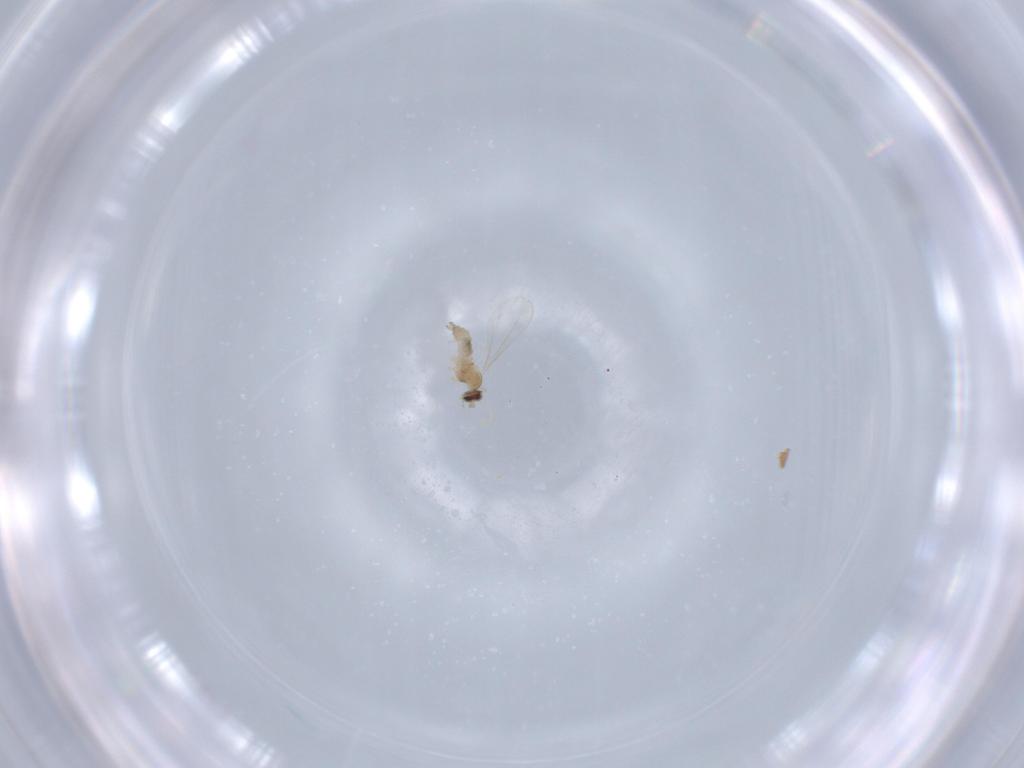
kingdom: Animalia
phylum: Arthropoda
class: Insecta
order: Diptera
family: Cecidomyiidae
